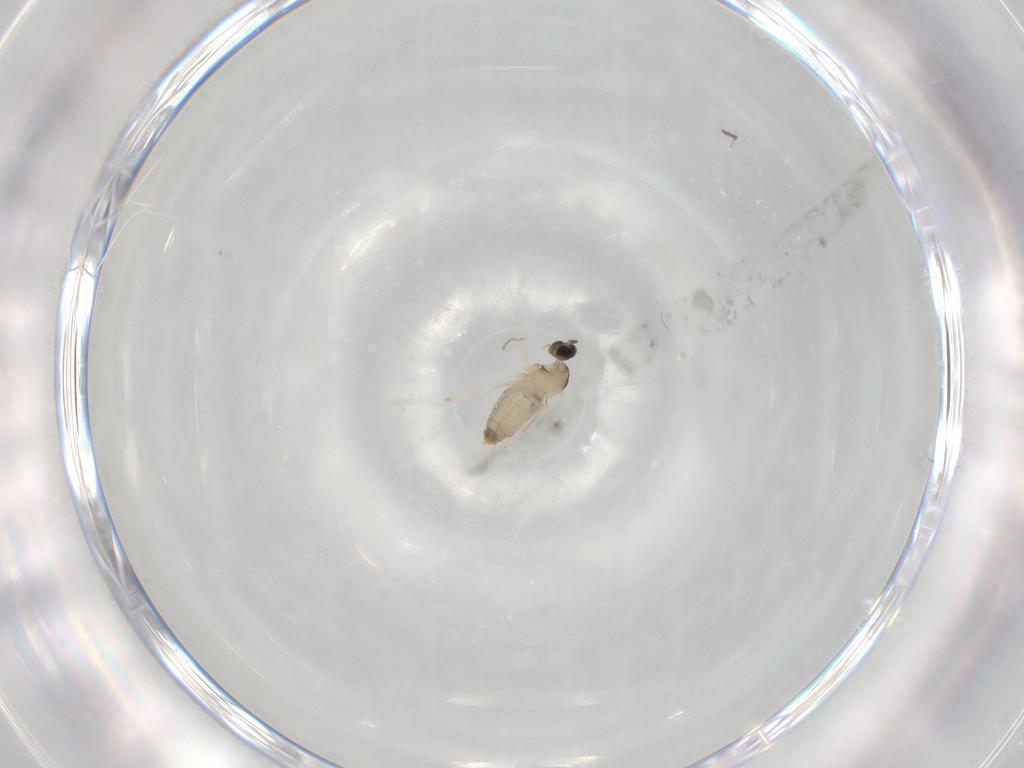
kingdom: Animalia
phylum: Arthropoda
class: Insecta
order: Diptera
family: Cecidomyiidae
